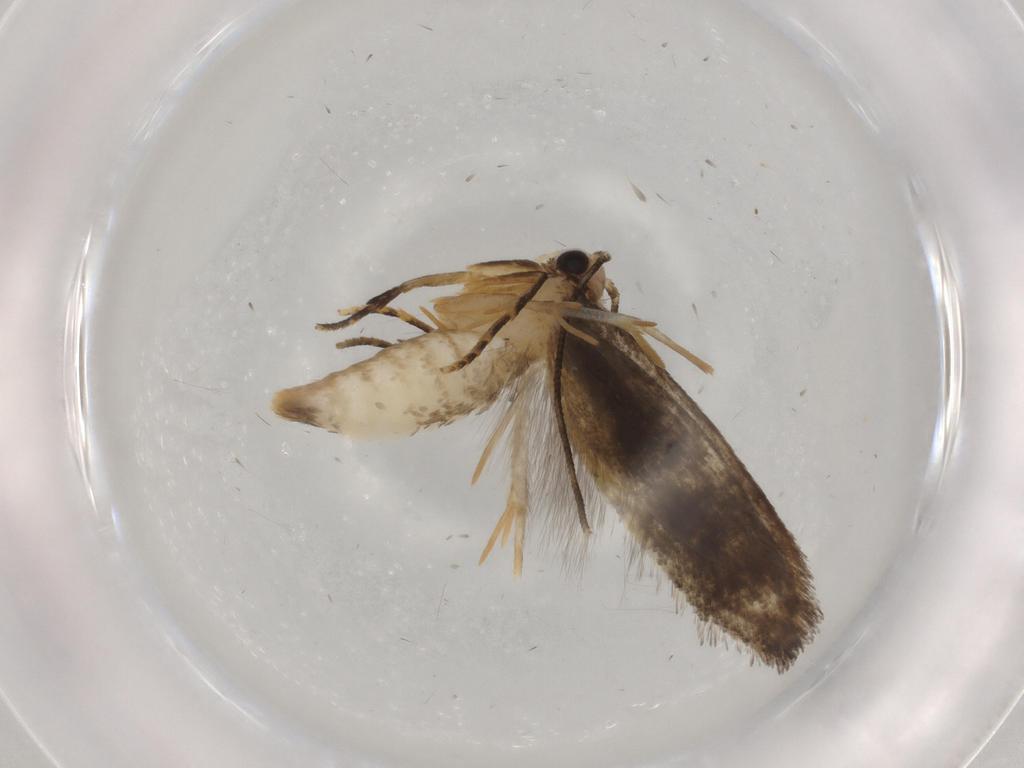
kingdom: Animalia
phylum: Arthropoda
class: Insecta
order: Lepidoptera
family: Tineidae
